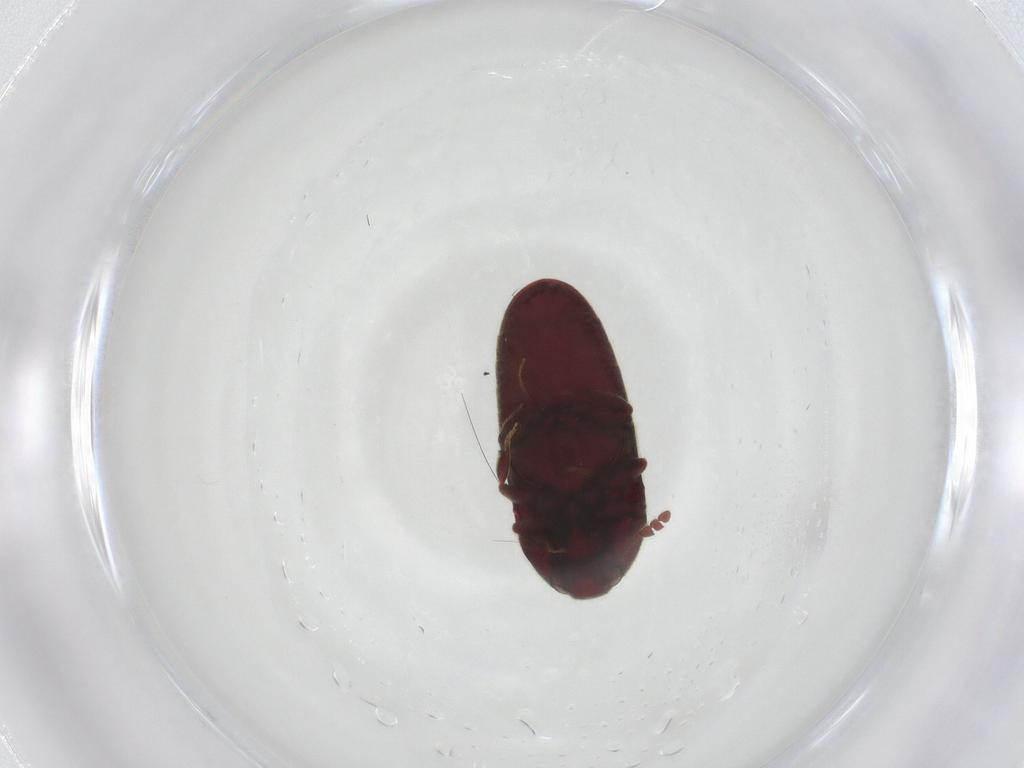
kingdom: Animalia
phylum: Arthropoda
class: Insecta
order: Coleoptera
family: Throscidae
